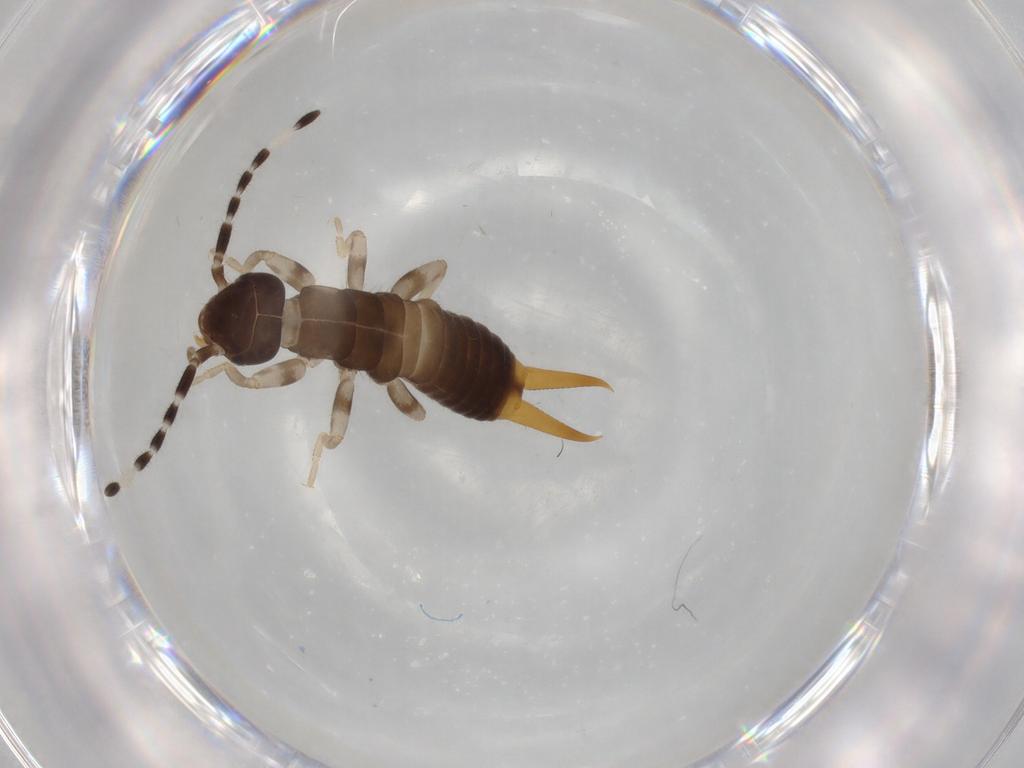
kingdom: Animalia
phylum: Arthropoda
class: Insecta
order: Dermaptera
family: Anisolabididae
